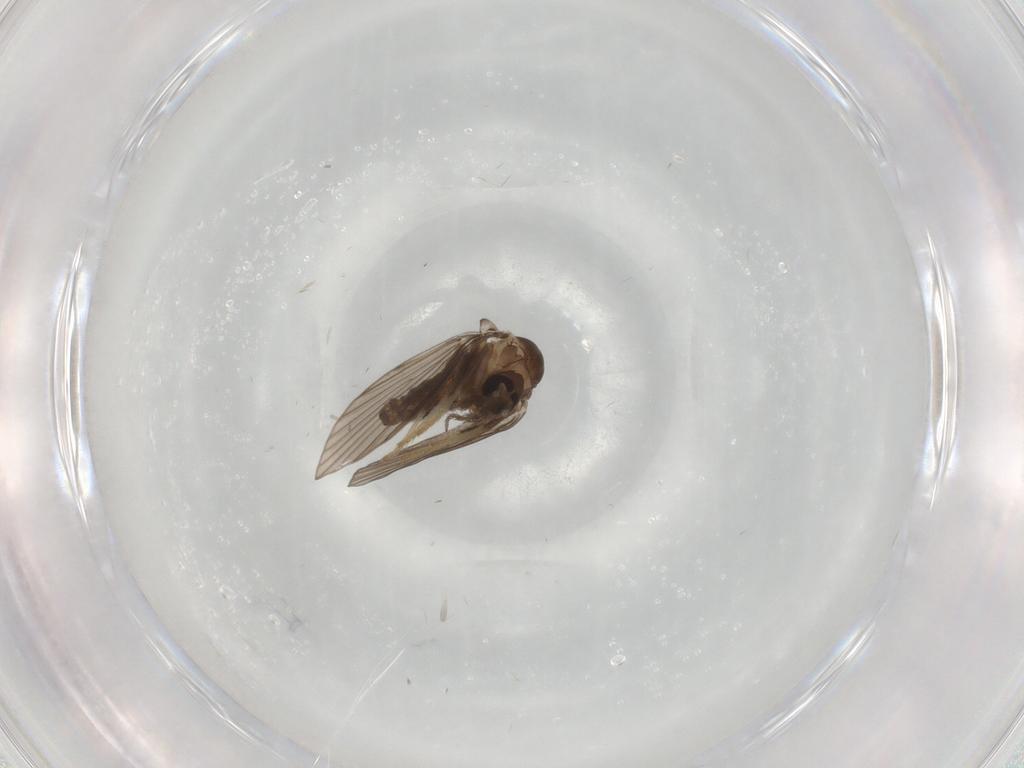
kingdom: Animalia
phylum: Arthropoda
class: Insecta
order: Diptera
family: Psychodidae
